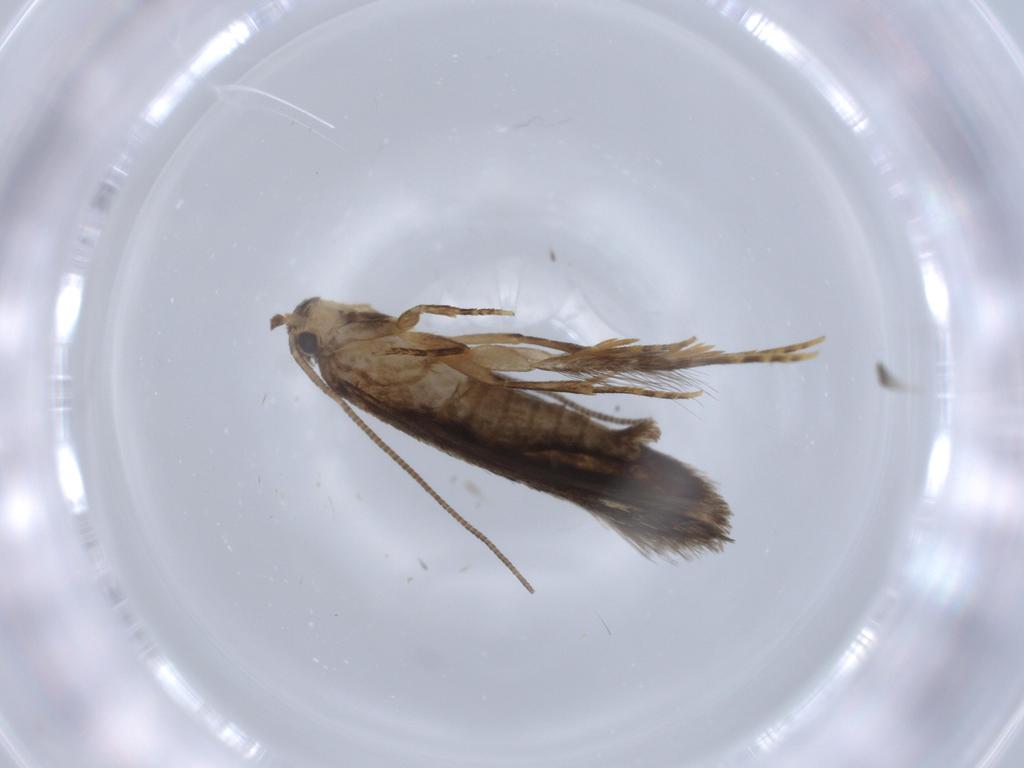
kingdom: Animalia
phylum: Arthropoda
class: Insecta
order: Lepidoptera
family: Tineidae
